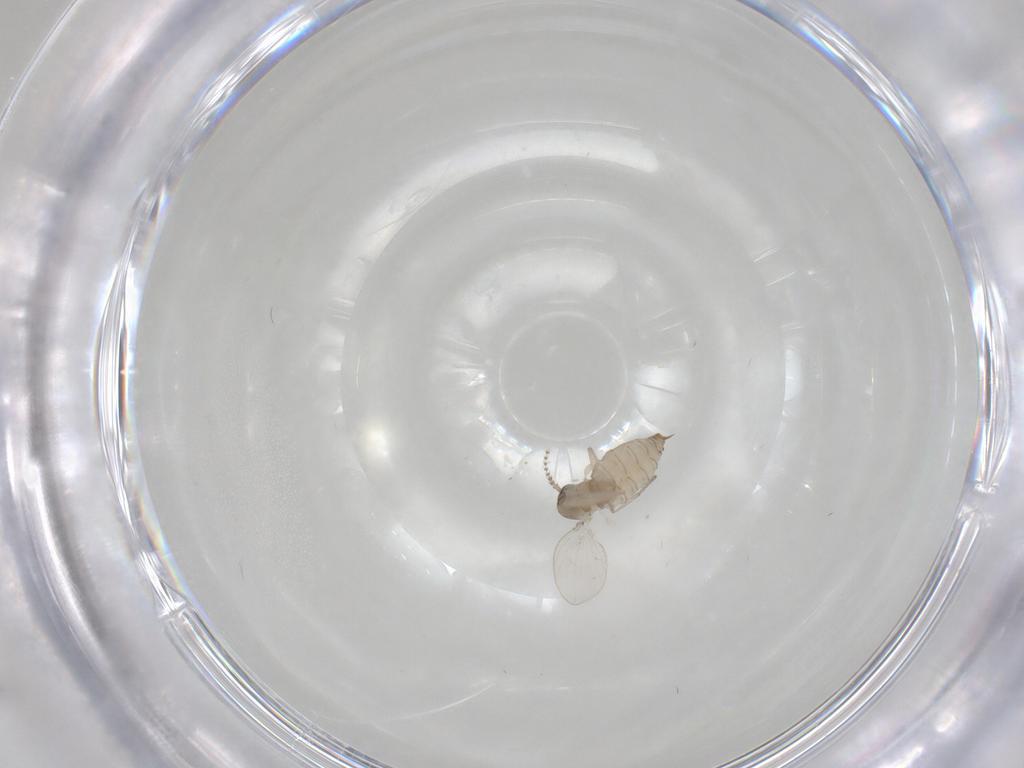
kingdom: Animalia
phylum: Arthropoda
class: Insecta
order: Diptera
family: Psychodidae
